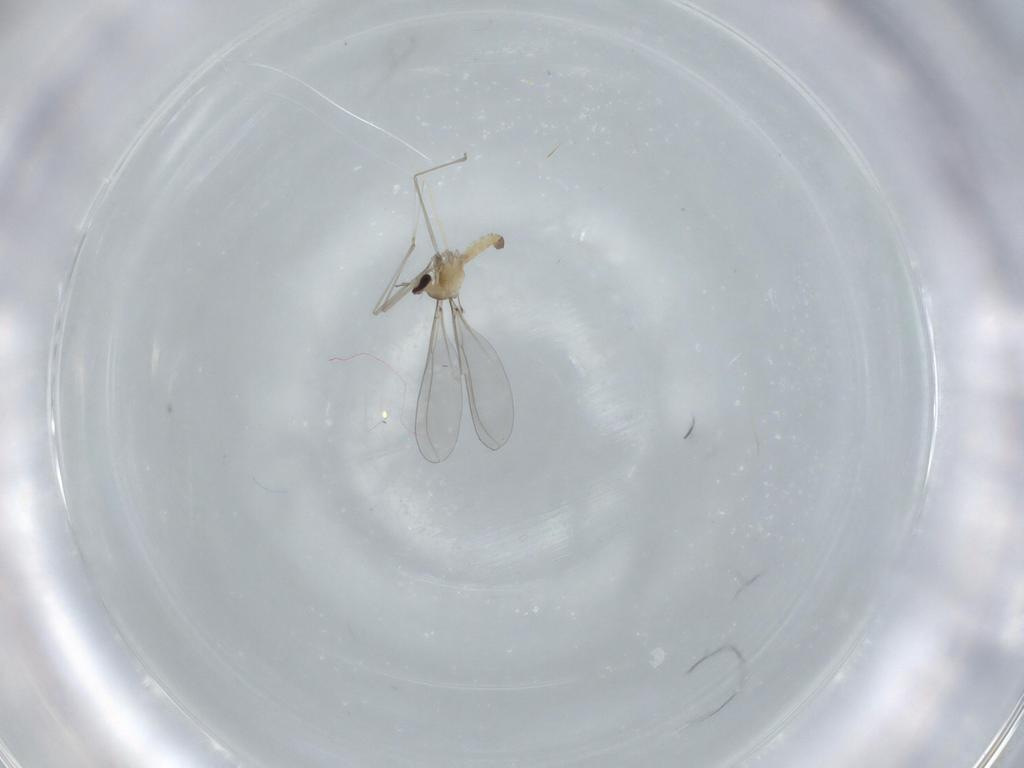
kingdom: Animalia
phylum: Arthropoda
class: Insecta
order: Diptera
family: Cecidomyiidae
